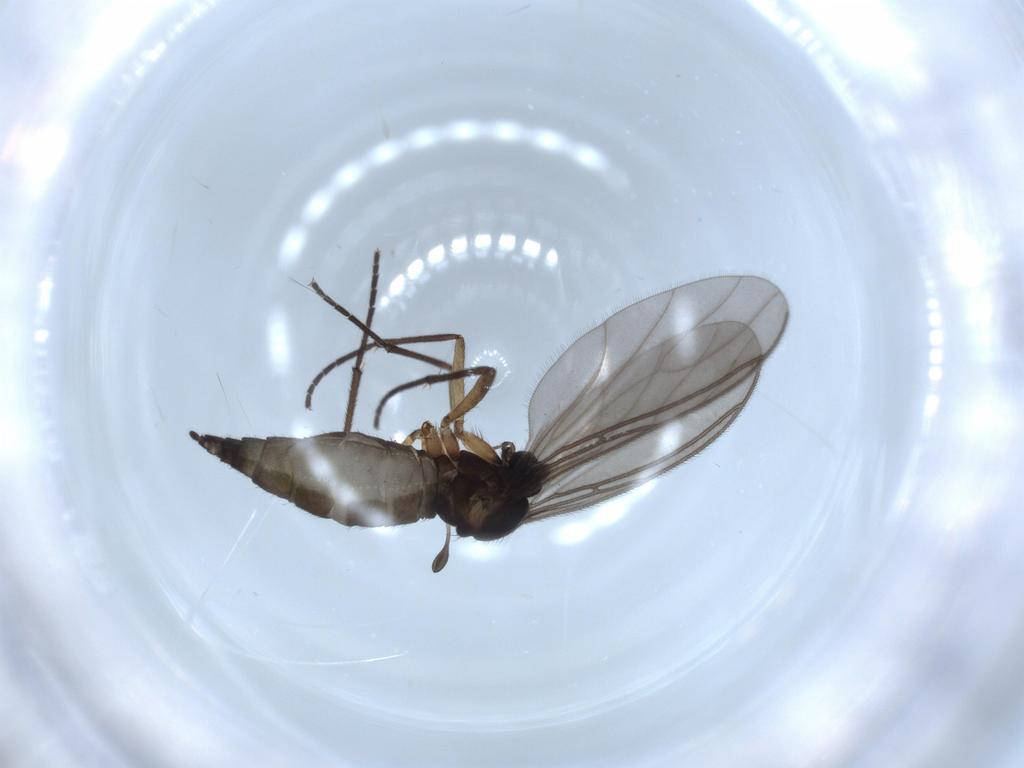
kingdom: Animalia
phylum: Arthropoda
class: Insecta
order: Diptera
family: Sciaridae
